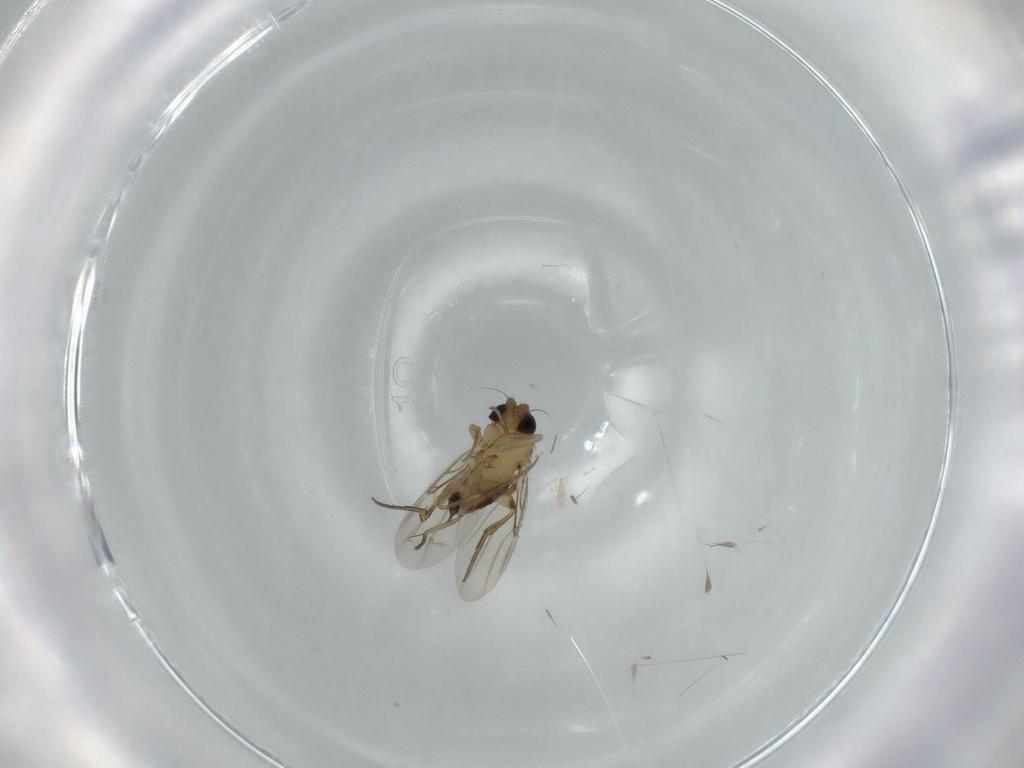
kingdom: Animalia
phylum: Arthropoda
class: Insecta
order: Diptera
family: Phoridae
